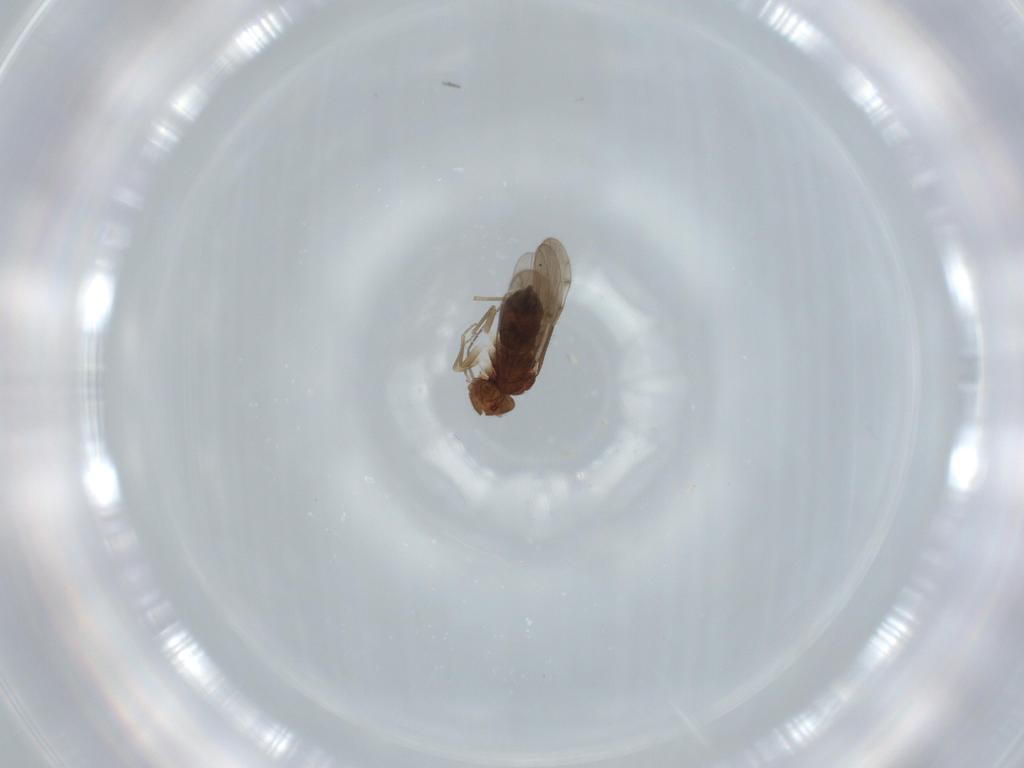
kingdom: Animalia
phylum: Arthropoda
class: Insecta
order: Psocodea
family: Ectopsocidae
